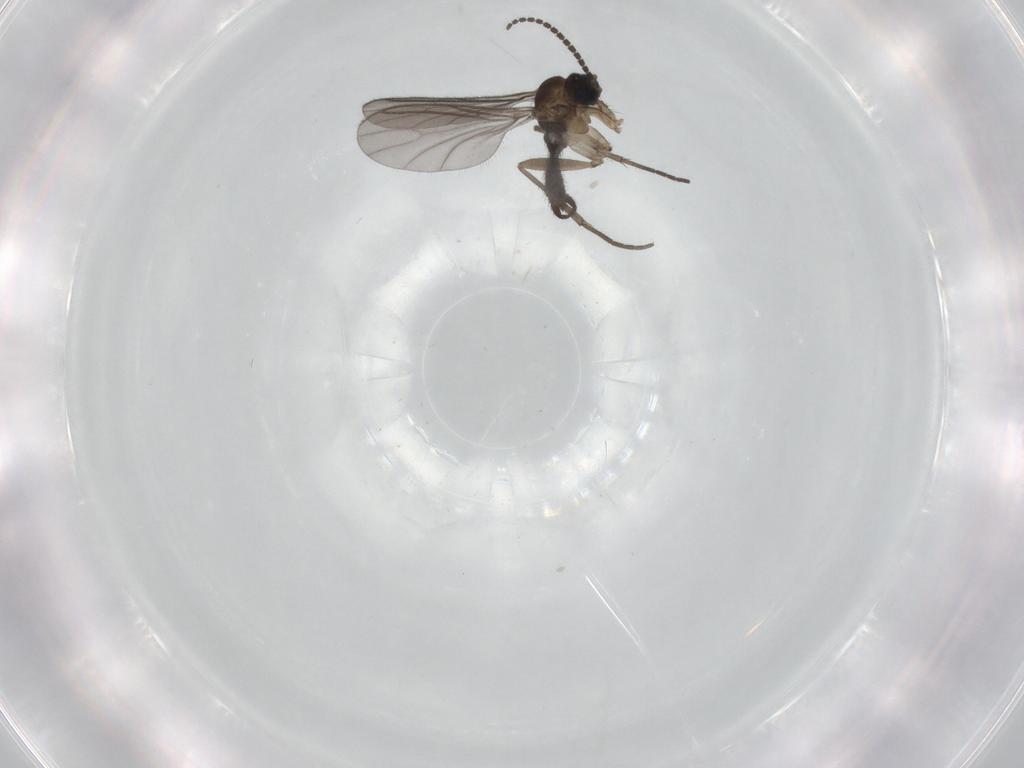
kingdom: Animalia
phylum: Arthropoda
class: Insecta
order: Diptera
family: Sciaridae
